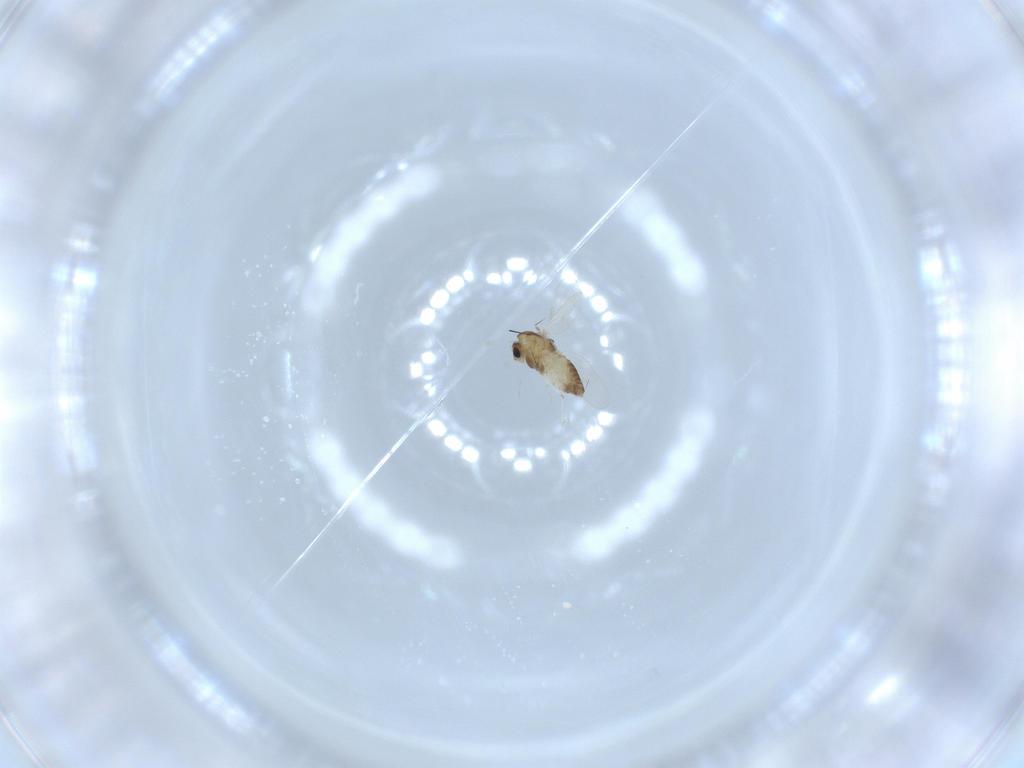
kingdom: Animalia
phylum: Arthropoda
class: Insecta
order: Diptera
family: Chironomidae
